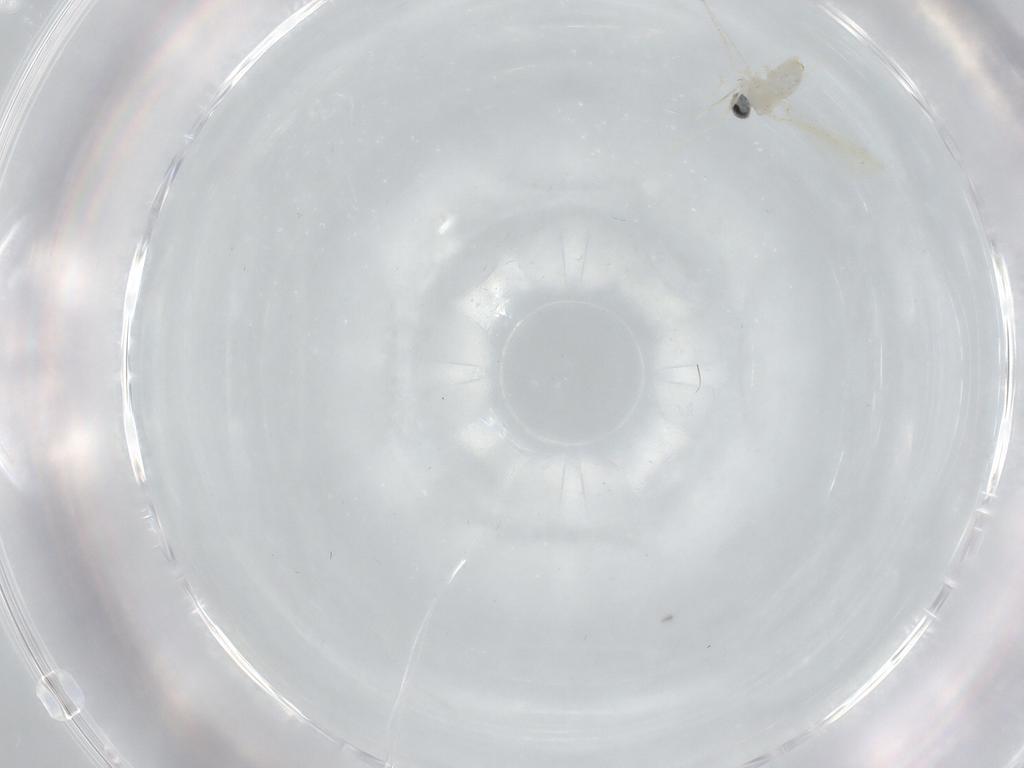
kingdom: Animalia
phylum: Arthropoda
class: Insecta
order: Diptera
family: Cecidomyiidae
